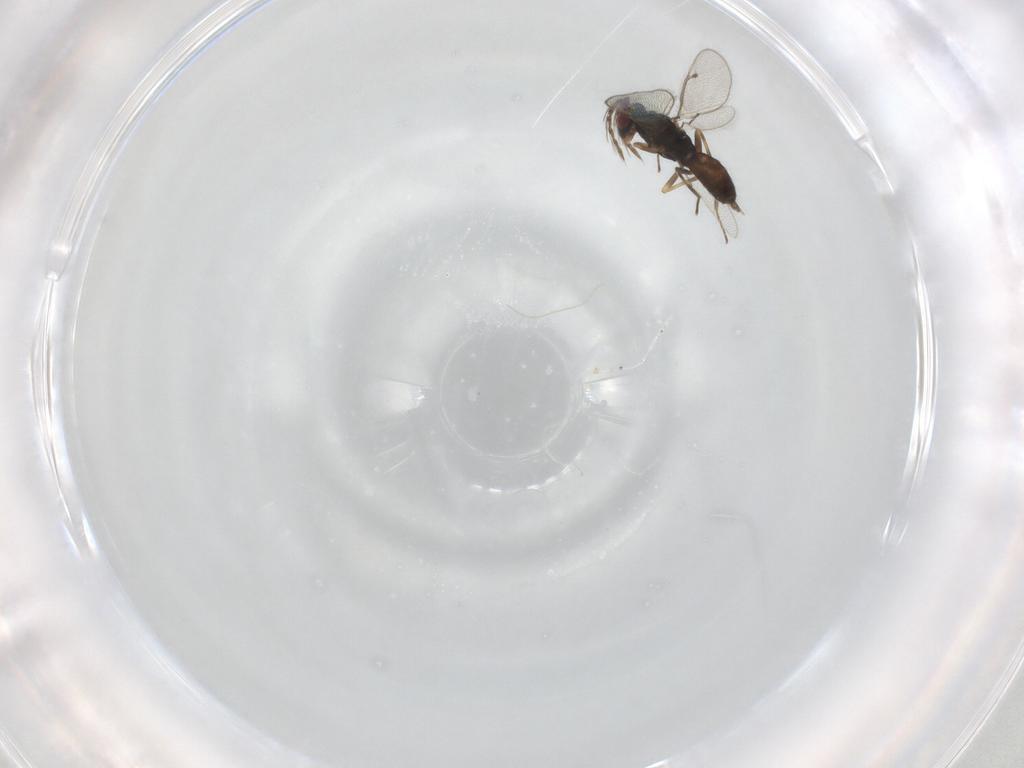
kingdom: Animalia
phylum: Arthropoda
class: Insecta
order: Hymenoptera
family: Eulophidae
